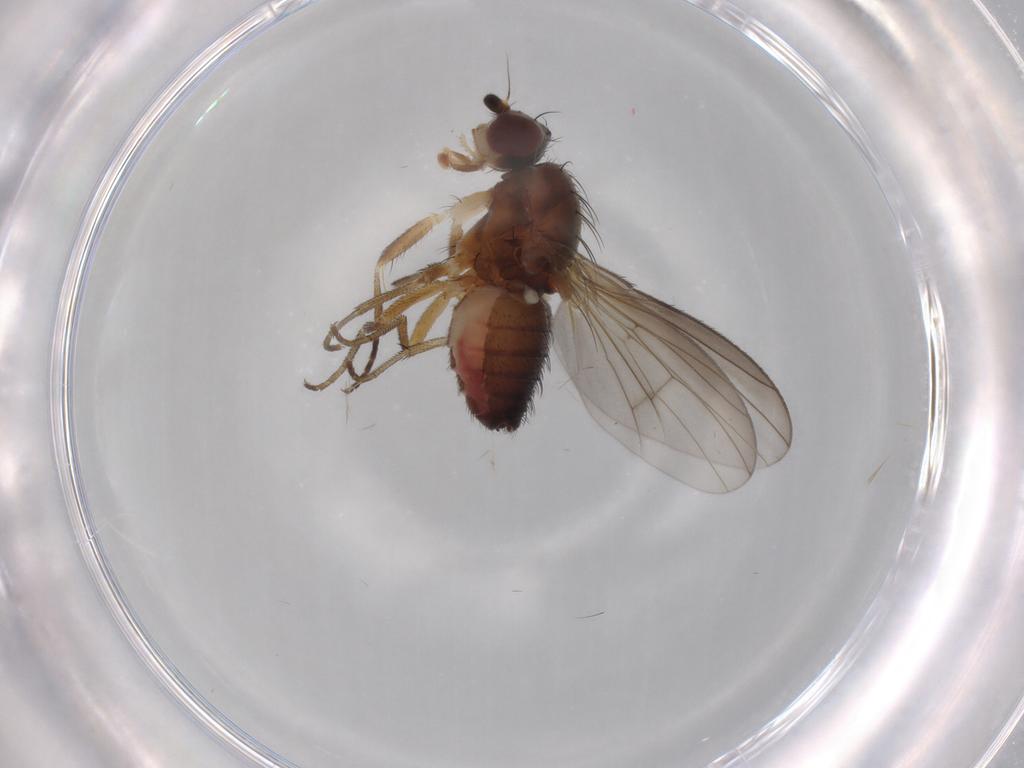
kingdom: Animalia
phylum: Arthropoda
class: Insecta
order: Diptera
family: Heleomyzidae
